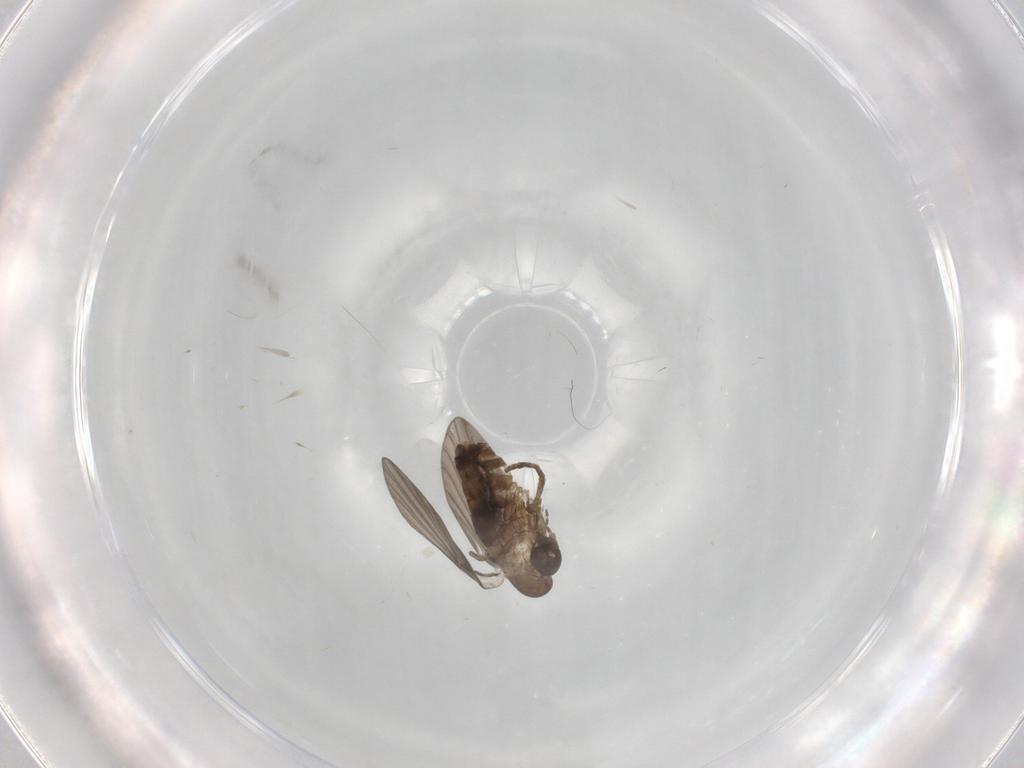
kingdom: Animalia
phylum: Arthropoda
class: Insecta
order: Diptera
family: Cecidomyiidae
